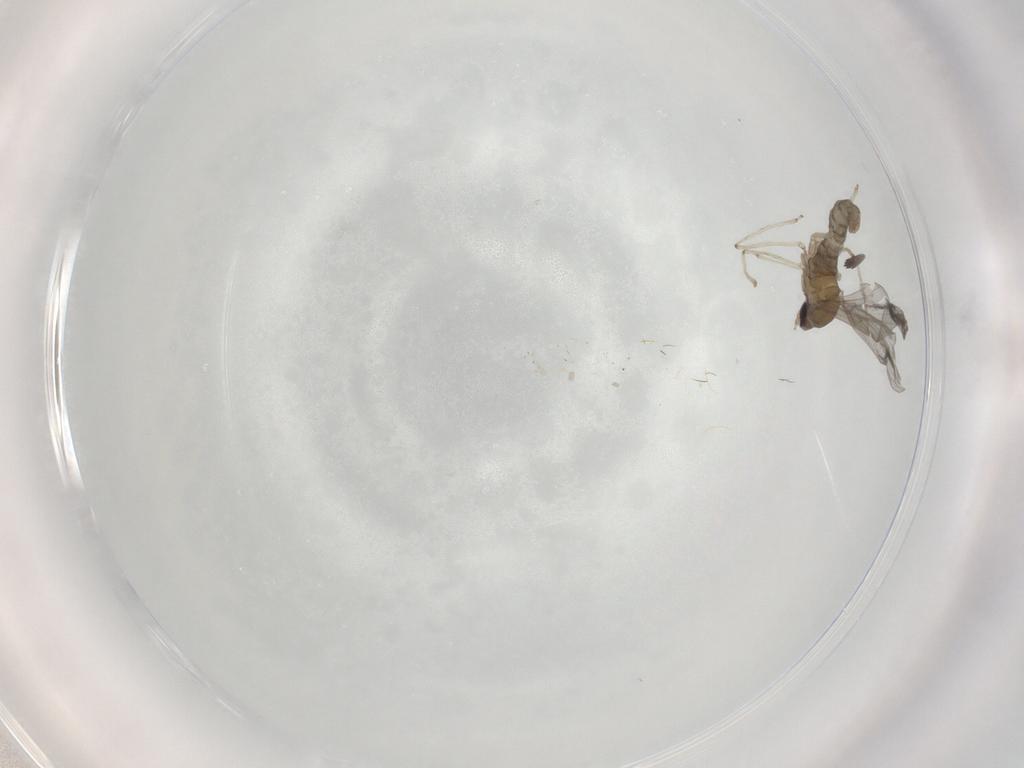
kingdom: Animalia
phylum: Arthropoda
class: Insecta
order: Diptera
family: Cecidomyiidae
